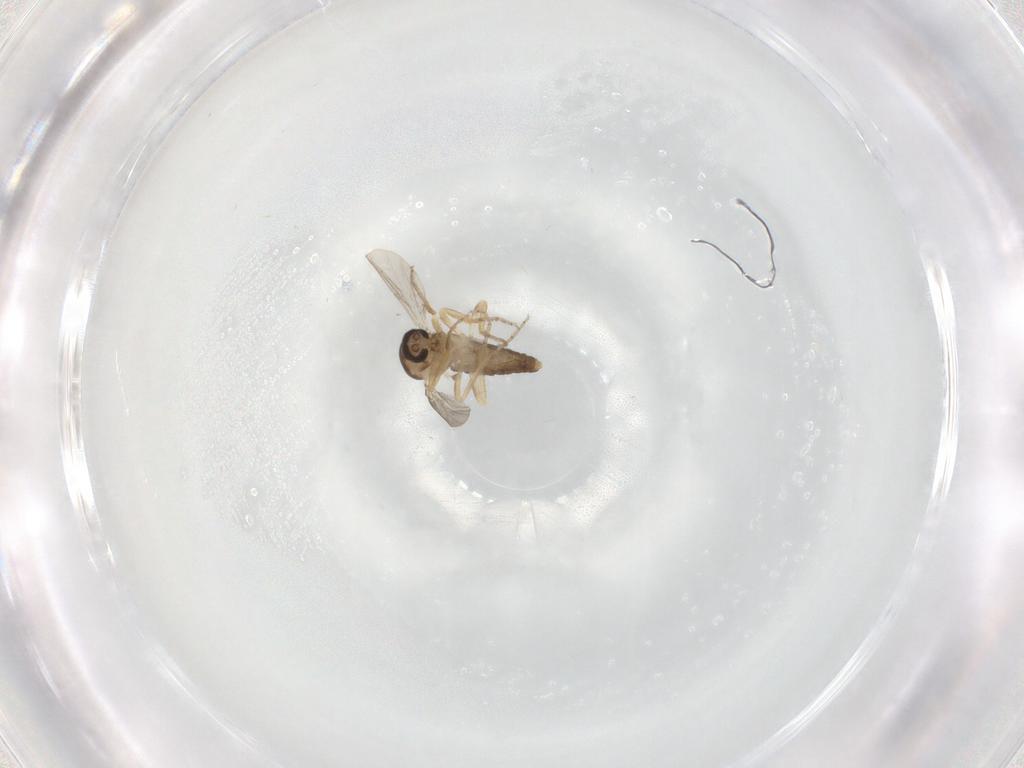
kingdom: Animalia
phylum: Arthropoda
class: Insecta
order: Diptera
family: Ceratopogonidae
